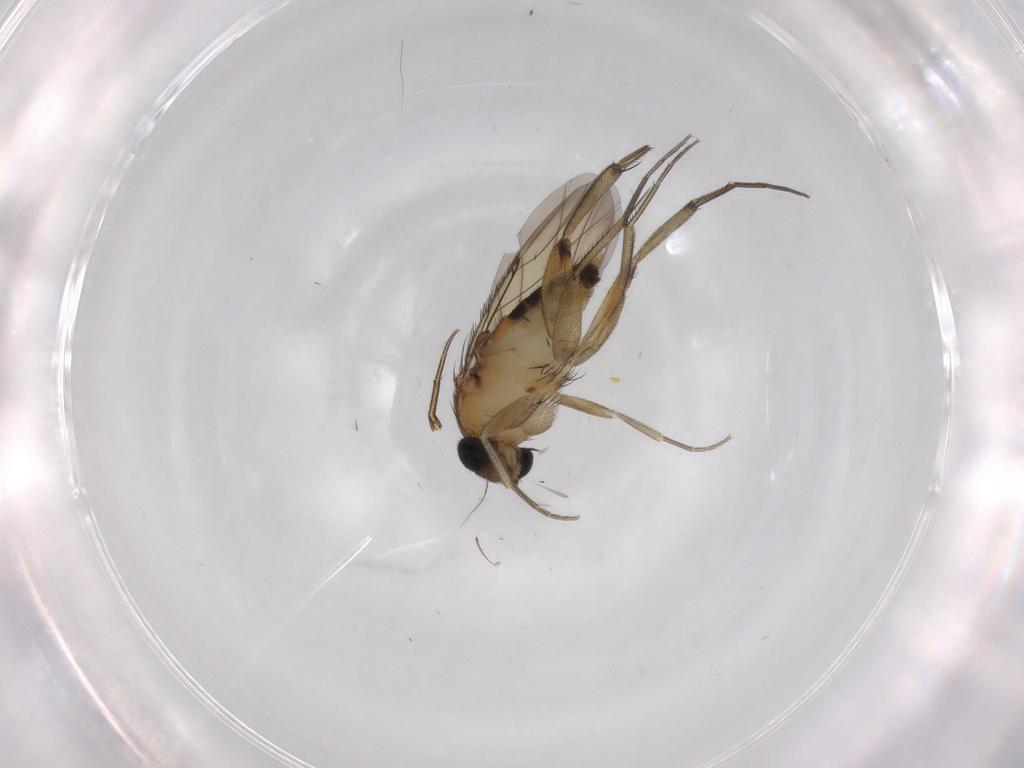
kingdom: Animalia
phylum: Arthropoda
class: Insecta
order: Diptera
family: Phoridae
